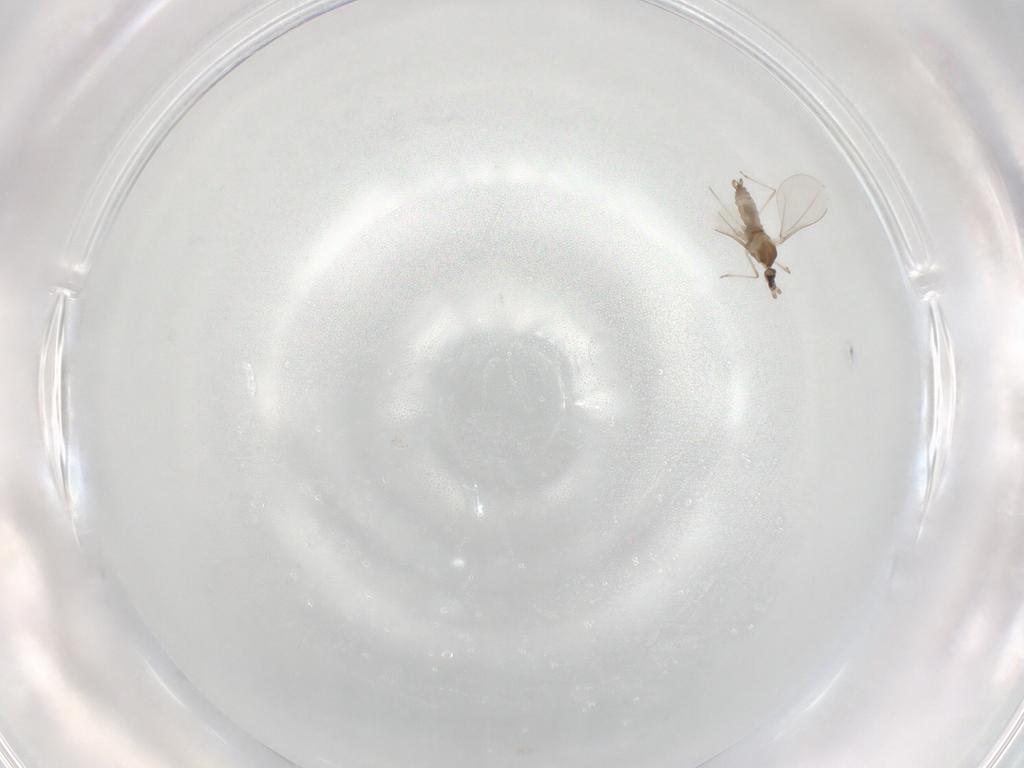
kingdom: Animalia
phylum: Arthropoda
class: Insecta
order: Diptera
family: Cecidomyiidae
